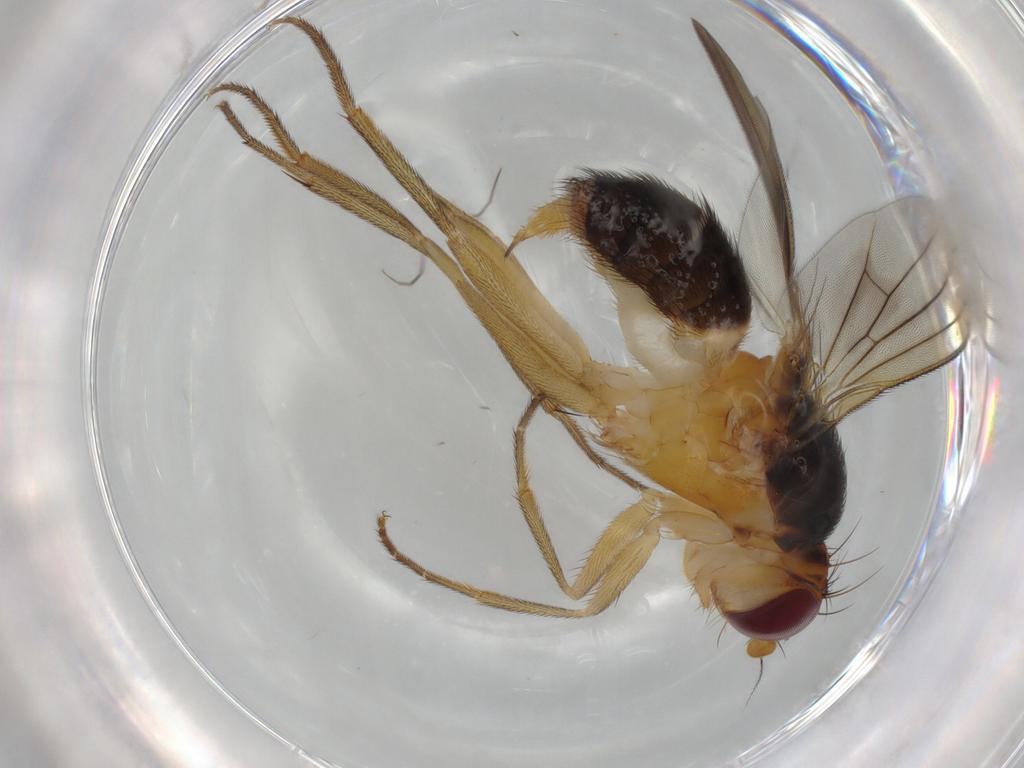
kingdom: Animalia
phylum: Arthropoda
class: Insecta
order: Diptera
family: Clusiidae
